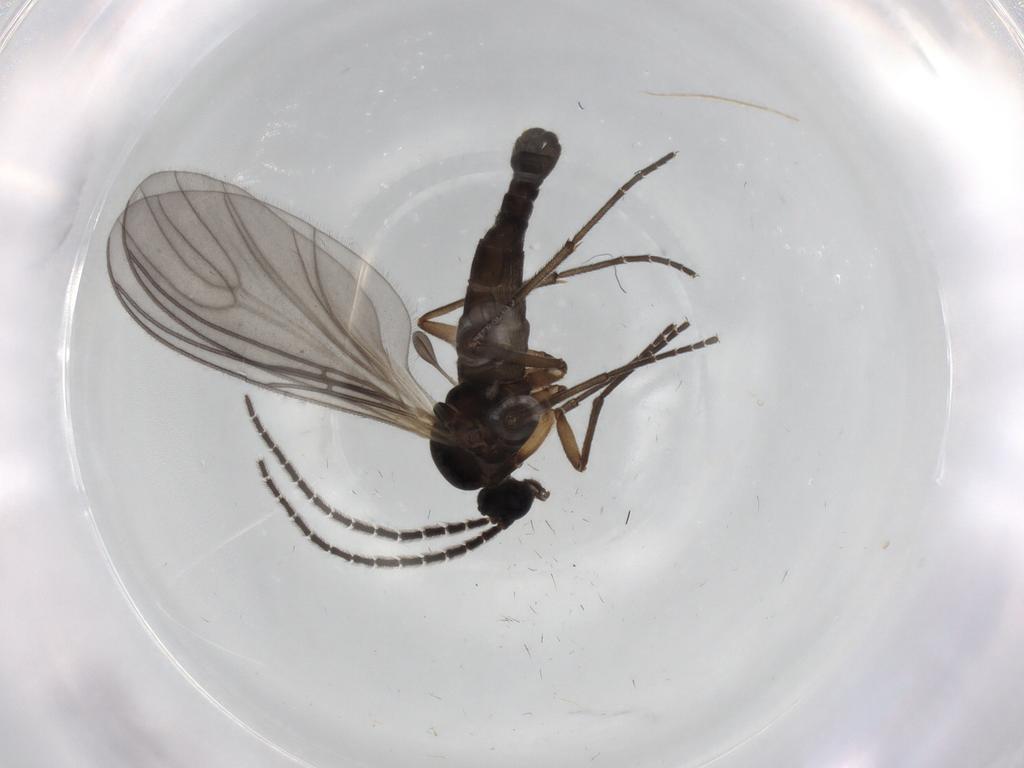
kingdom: Animalia
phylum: Arthropoda
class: Insecta
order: Diptera
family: Sciaridae
